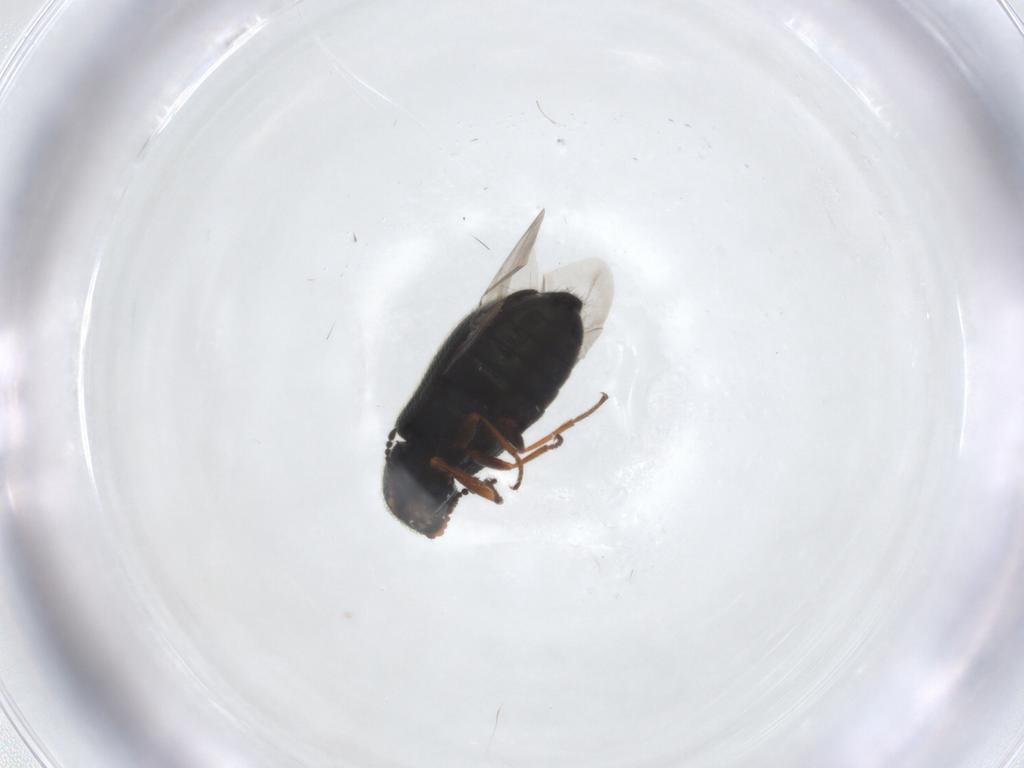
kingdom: Animalia
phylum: Arthropoda
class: Insecta
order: Coleoptera
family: Melyridae
